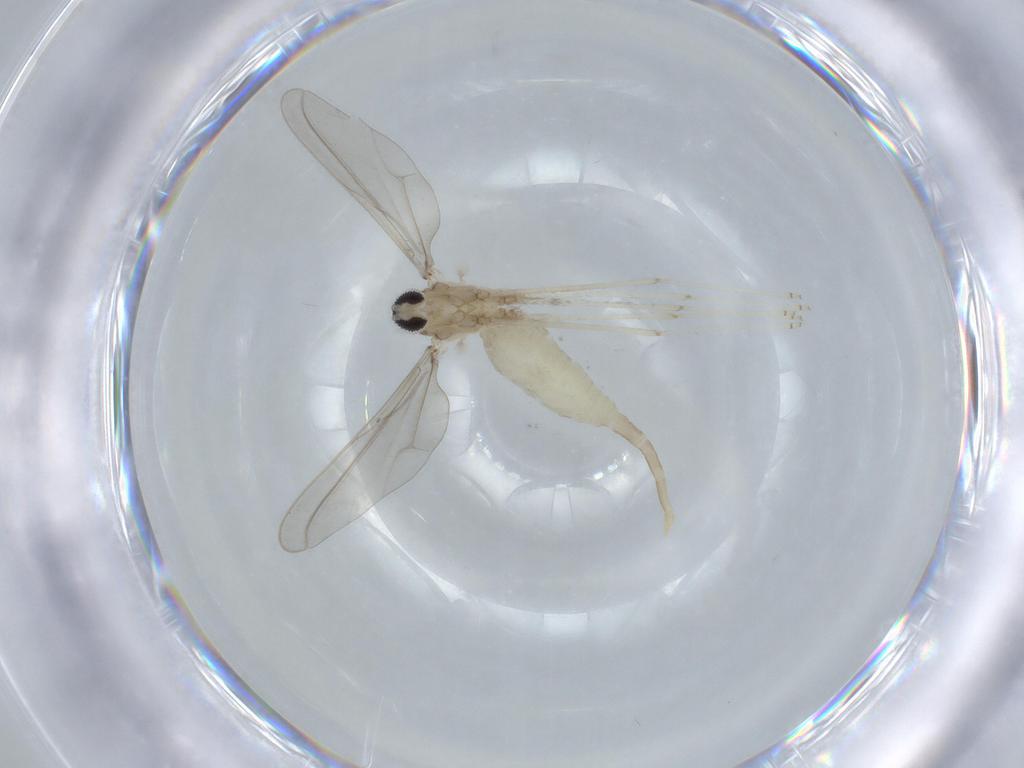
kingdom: Animalia
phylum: Arthropoda
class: Insecta
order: Diptera
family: Cecidomyiidae
